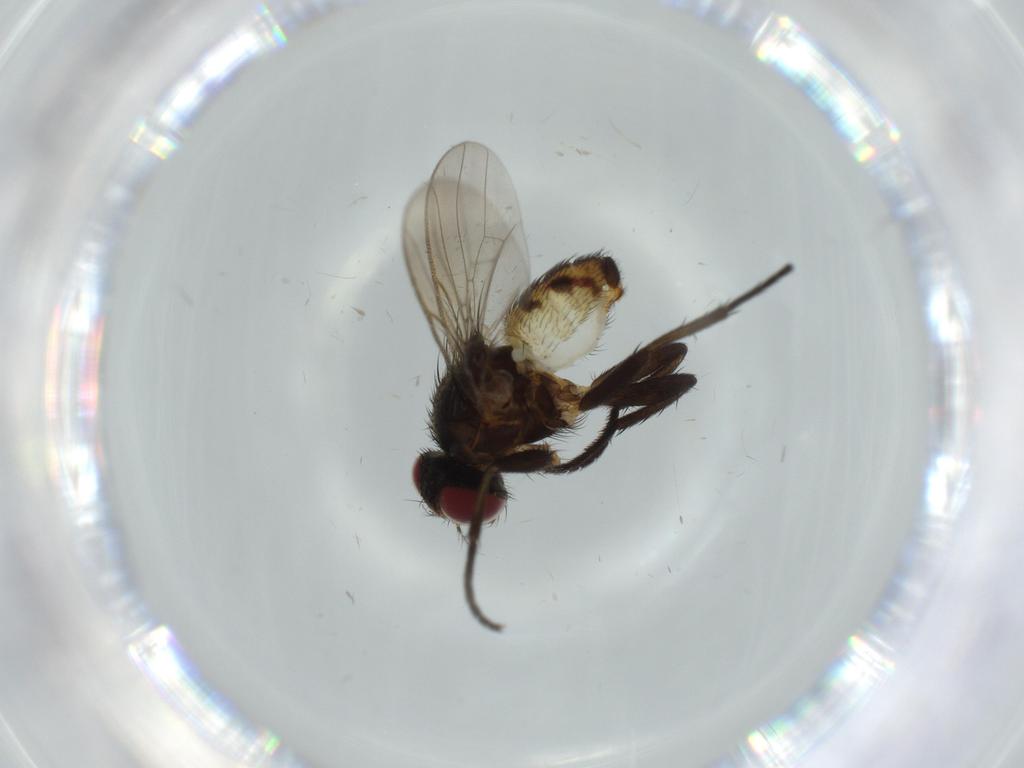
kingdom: Animalia
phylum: Arthropoda
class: Insecta
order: Diptera
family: Anthomyiidae
